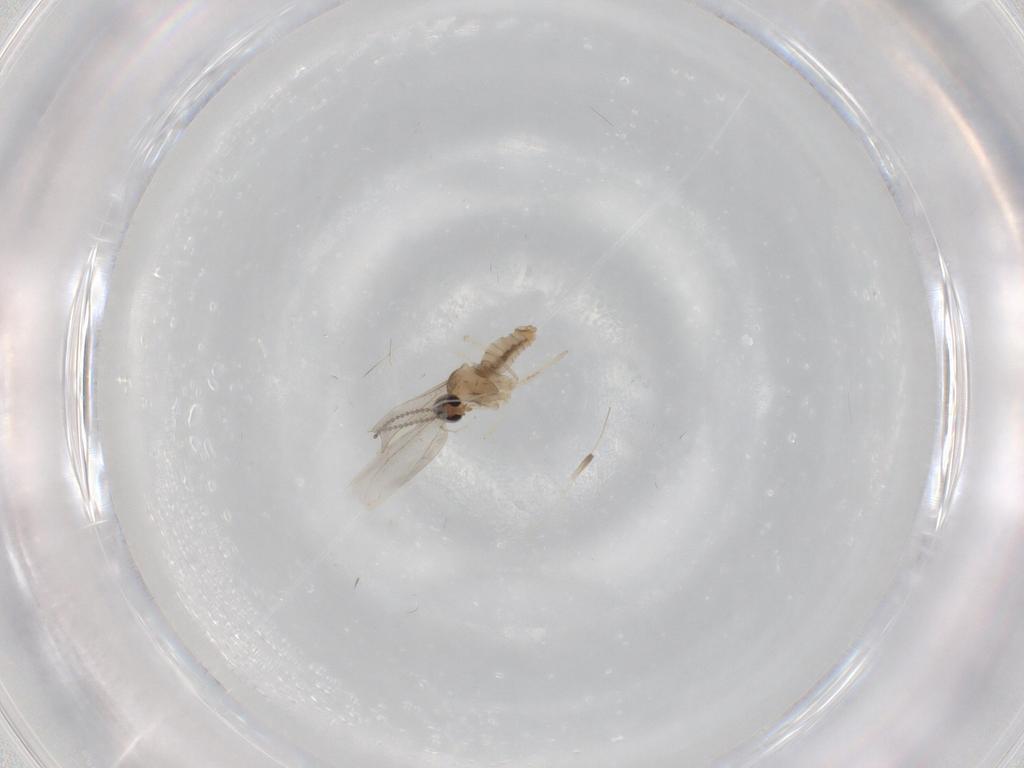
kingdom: Animalia
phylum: Arthropoda
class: Insecta
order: Diptera
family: Cecidomyiidae
